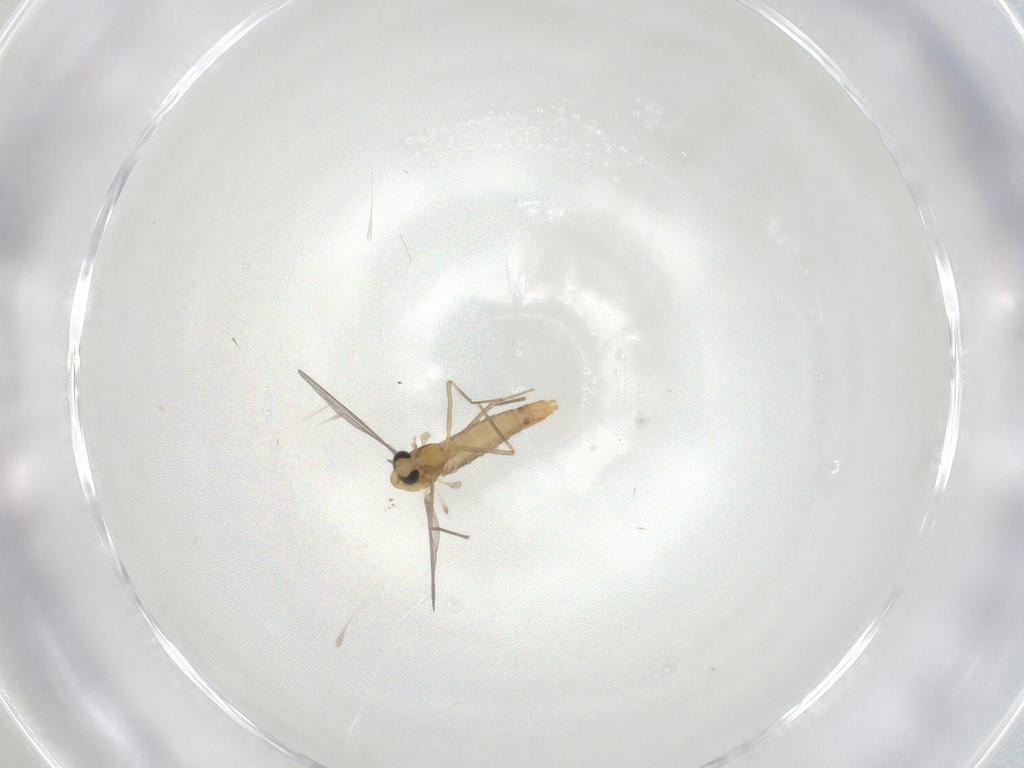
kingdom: Animalia
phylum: Arthropoda
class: Insecta
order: Diptera
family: Chironomidae
